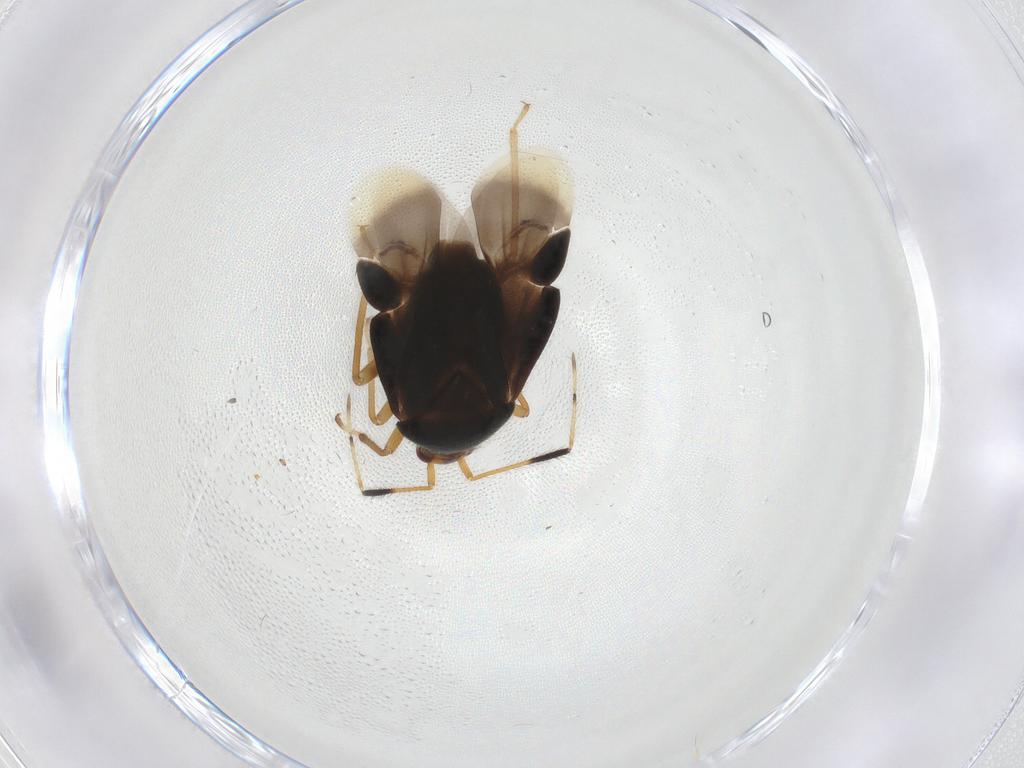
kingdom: Animalia
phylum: Arthropoda
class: Insecta
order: Hemiptera
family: Miridae
